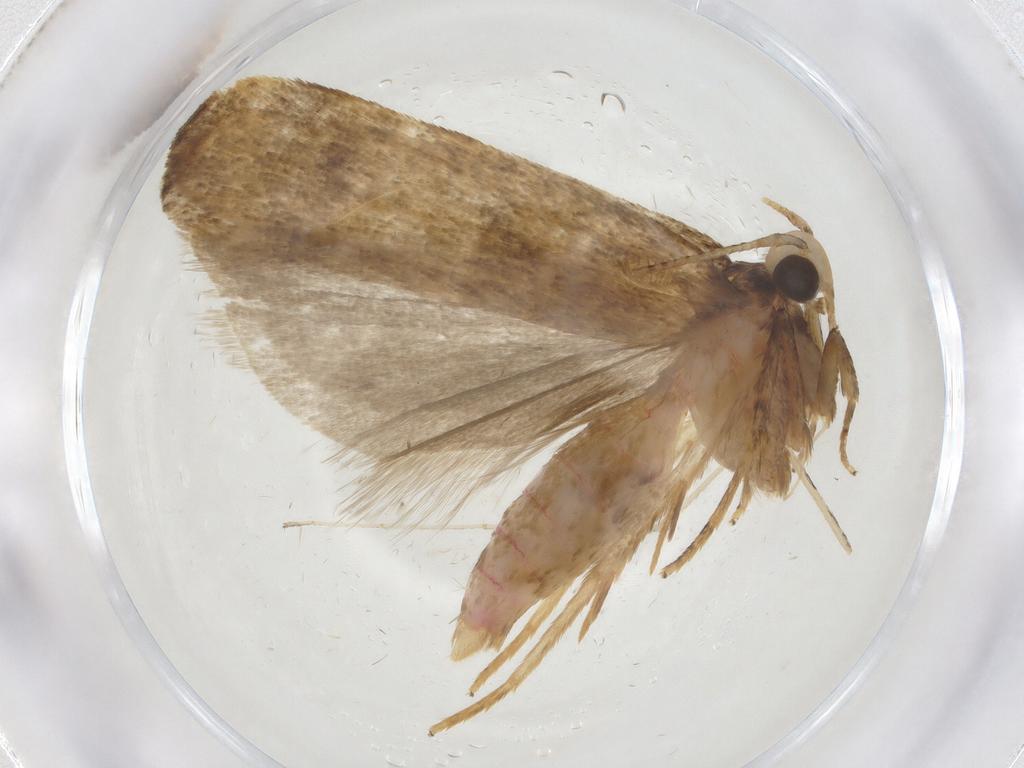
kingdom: Animalia
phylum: Arthropoda
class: Insecta
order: Lepidoptera
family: Autostichidae
